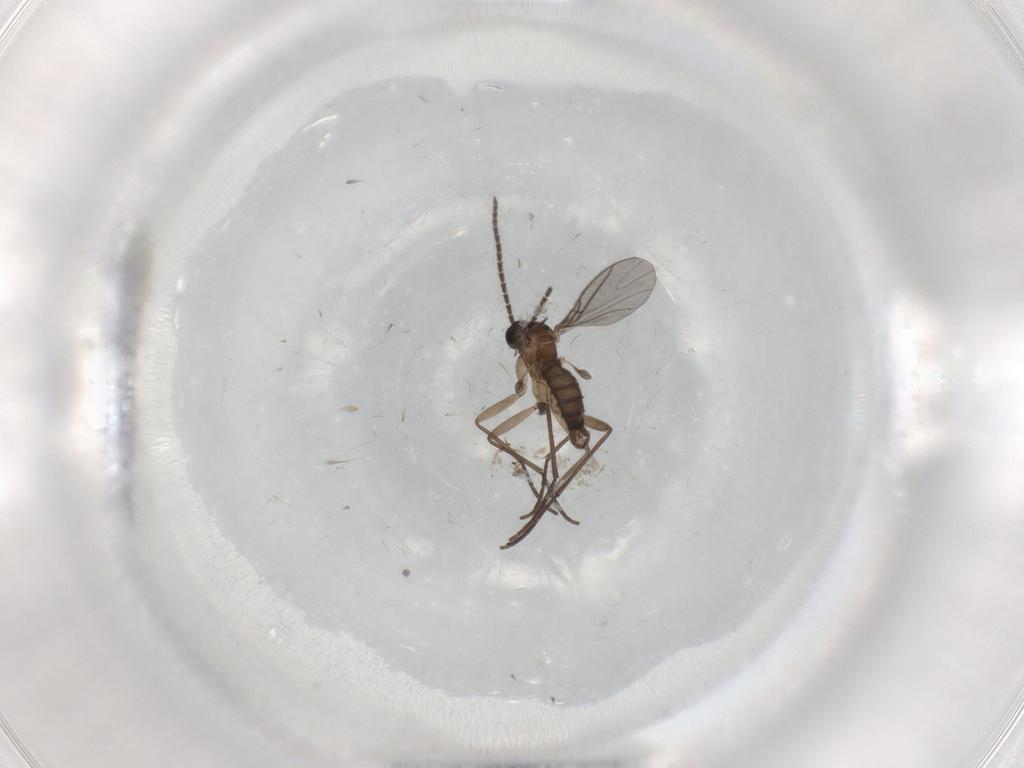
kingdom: Animalia
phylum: Arthropoda
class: Insecta
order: Diptera
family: Sciaridae
